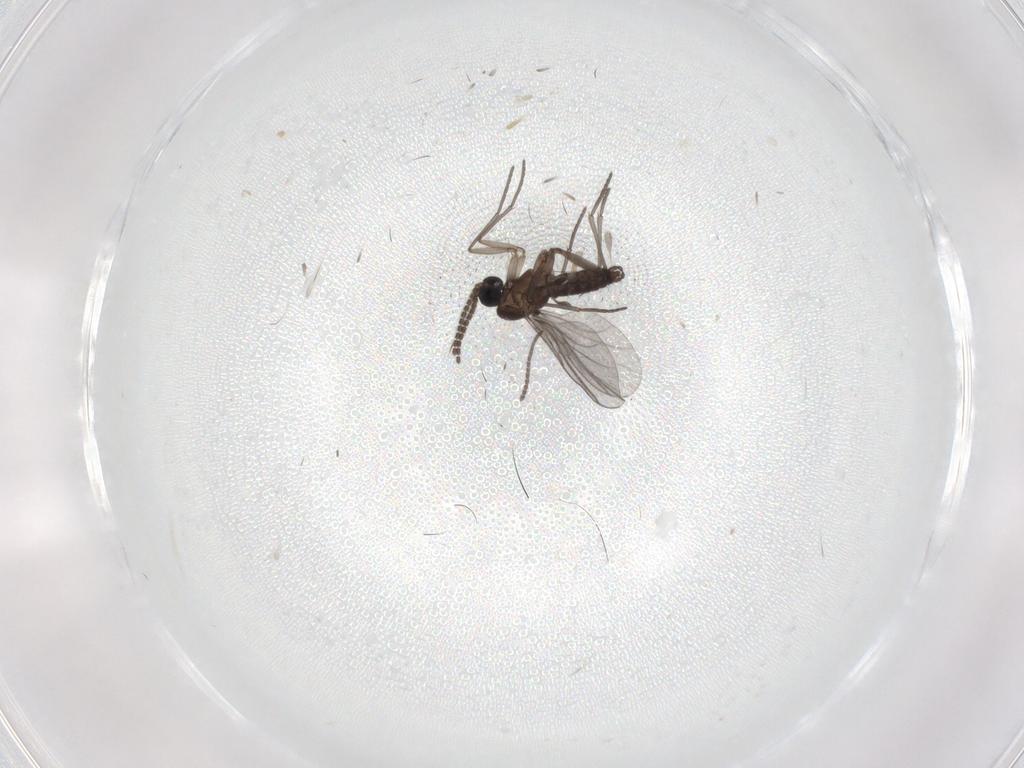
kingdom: Animalia
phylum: Arthropoda
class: Insecta
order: Diptera
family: Sciaridae
